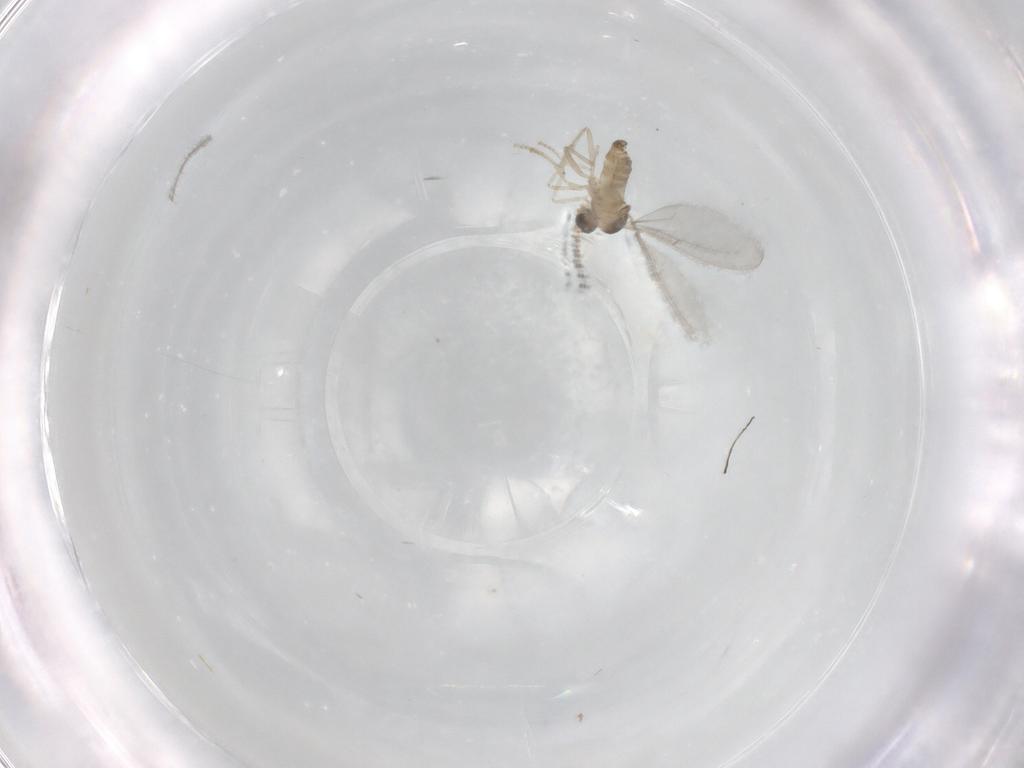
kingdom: Animalia
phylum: Arthropoda
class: Insecta
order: Diptera
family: Cecidomyiidae
